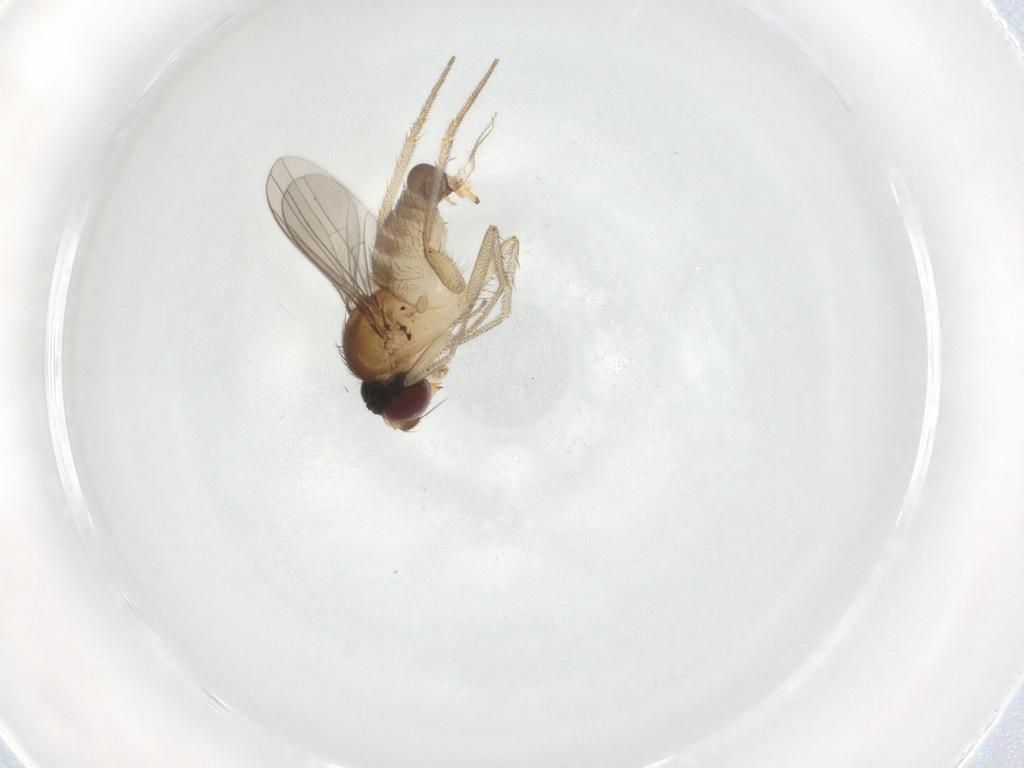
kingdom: Animalia
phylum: Arthropoda
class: Insecta
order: Diptera
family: Dolichopodidae
